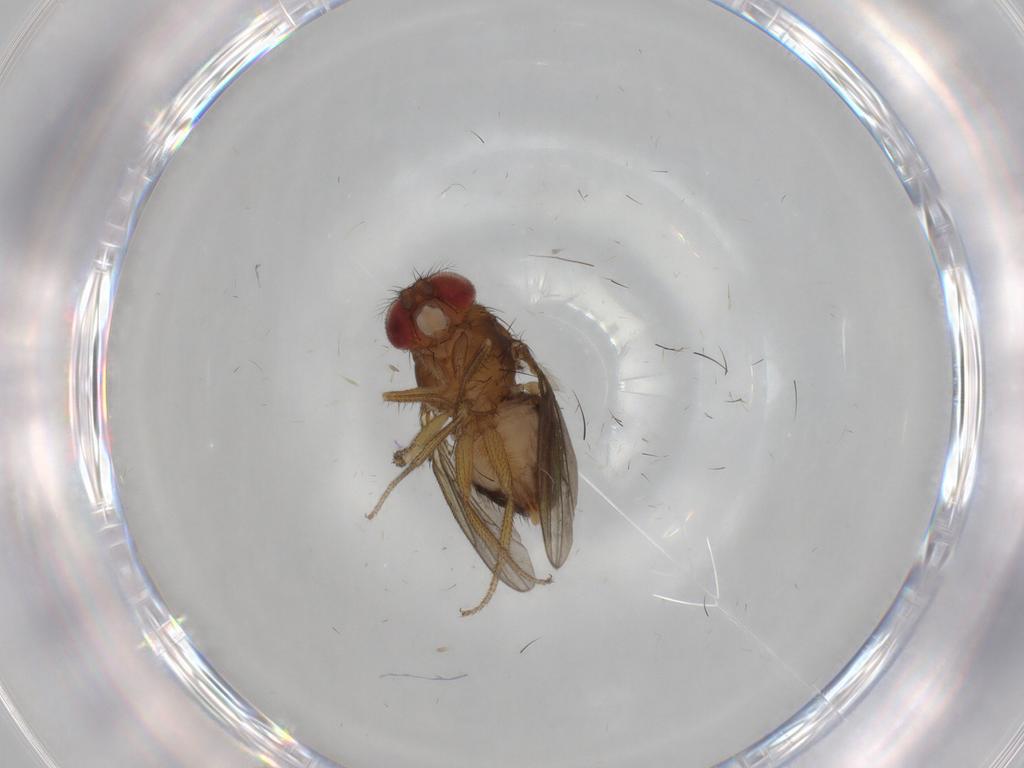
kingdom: Animalia
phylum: Arthropoda
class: Insecta
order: Diptera
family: Drosophilidae
